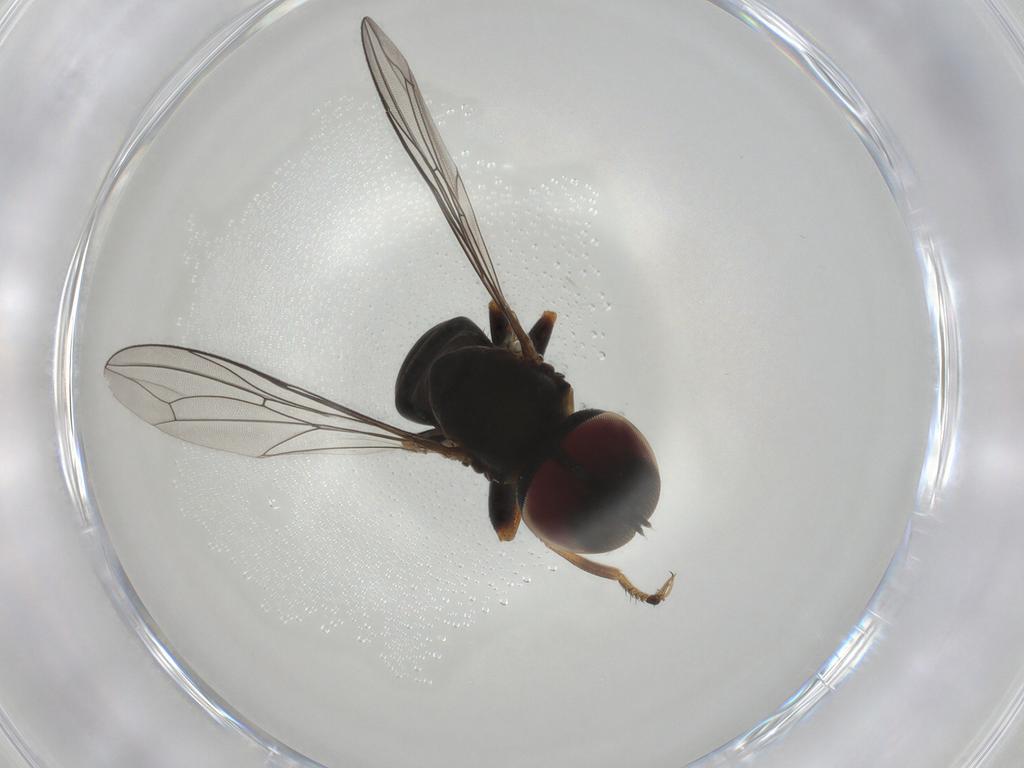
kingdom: Animalia
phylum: Arthropoda
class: Insecta
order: Diptera
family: Pipunculidae
